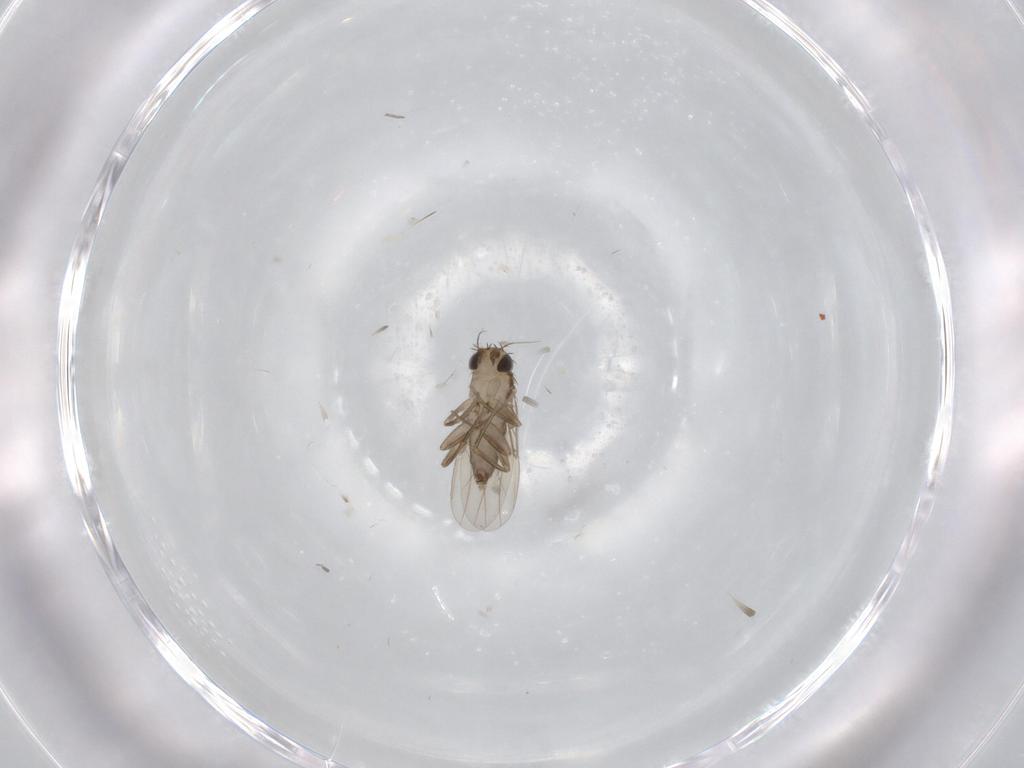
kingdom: Animalia
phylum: Arthropoda
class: Insecta
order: Diptera
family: Phoridae
